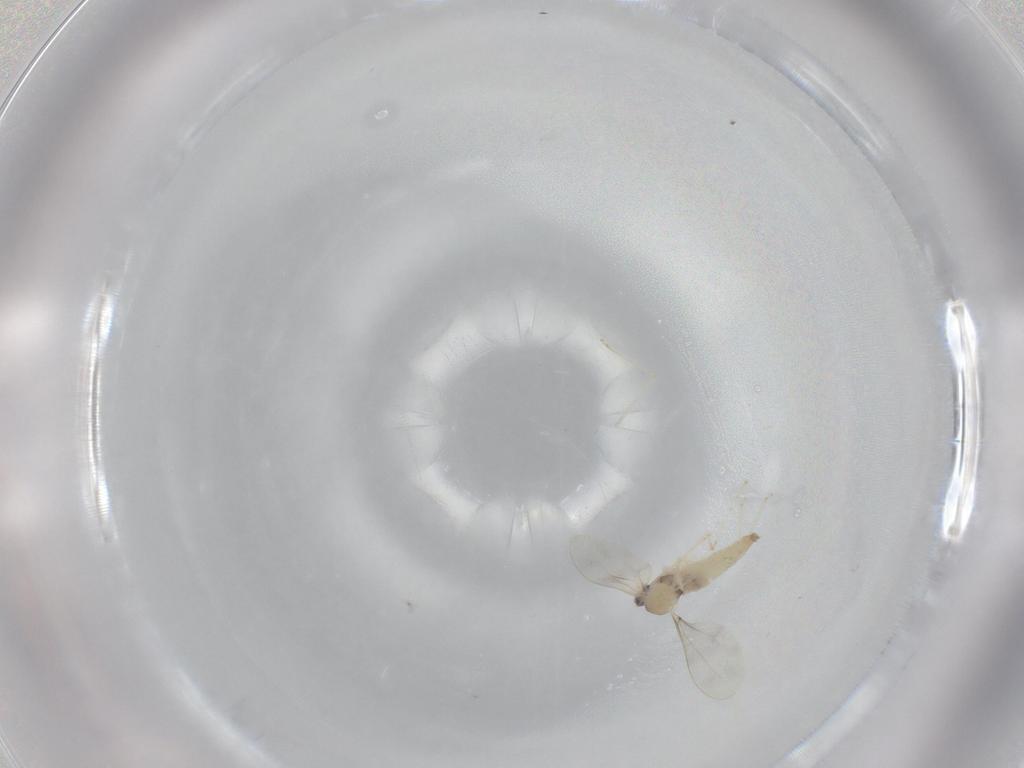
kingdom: Animalia
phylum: Arthropoda
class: Insecta
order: Diptera
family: Cecidomyiidae
